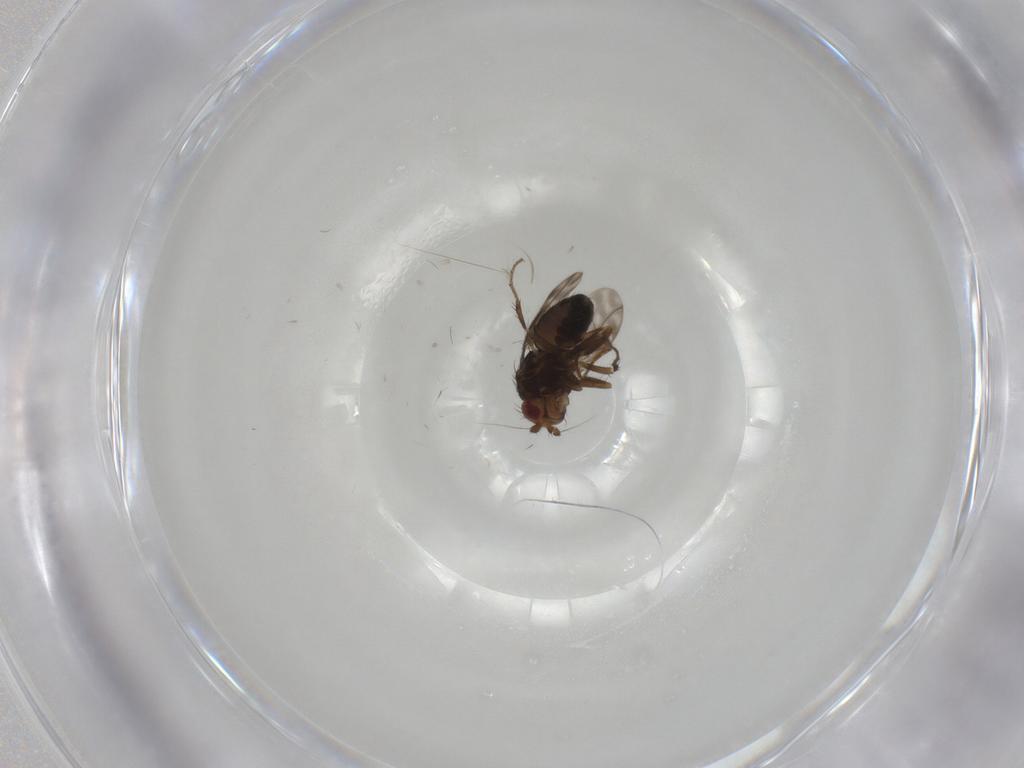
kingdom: Animalia
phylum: Arthropoda
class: Insecta
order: Diptera
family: Sphaeroceridae
